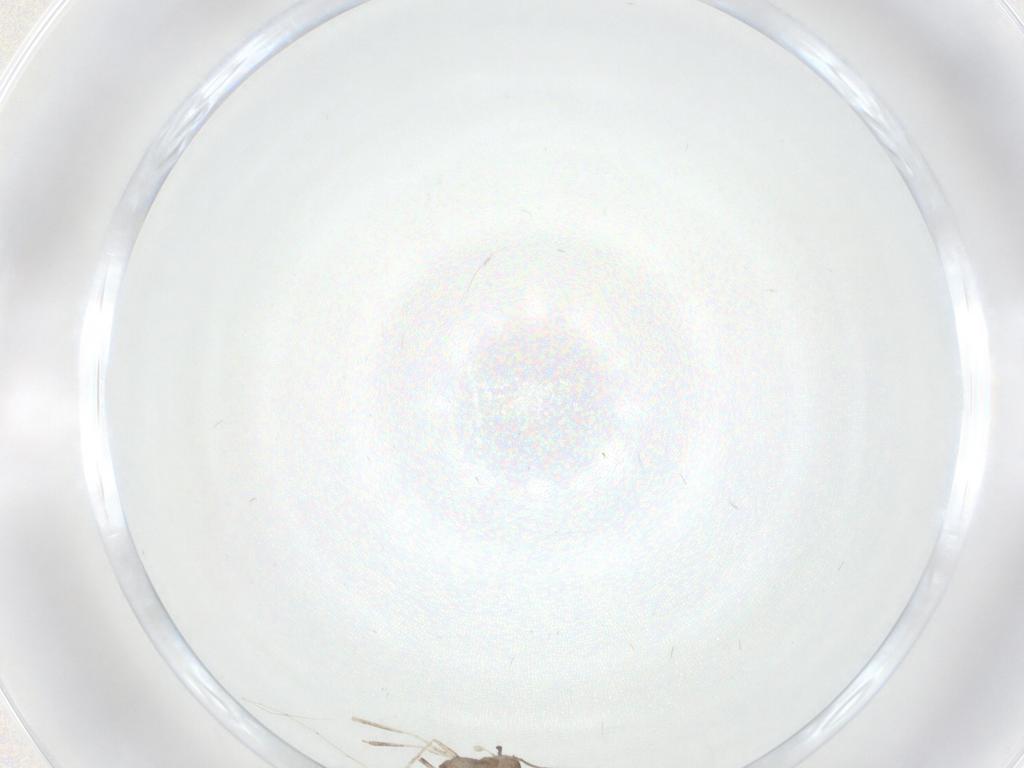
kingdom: Animalia
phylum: Arthropoda
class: Insecta
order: Diptera
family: Cecidomyiidae
